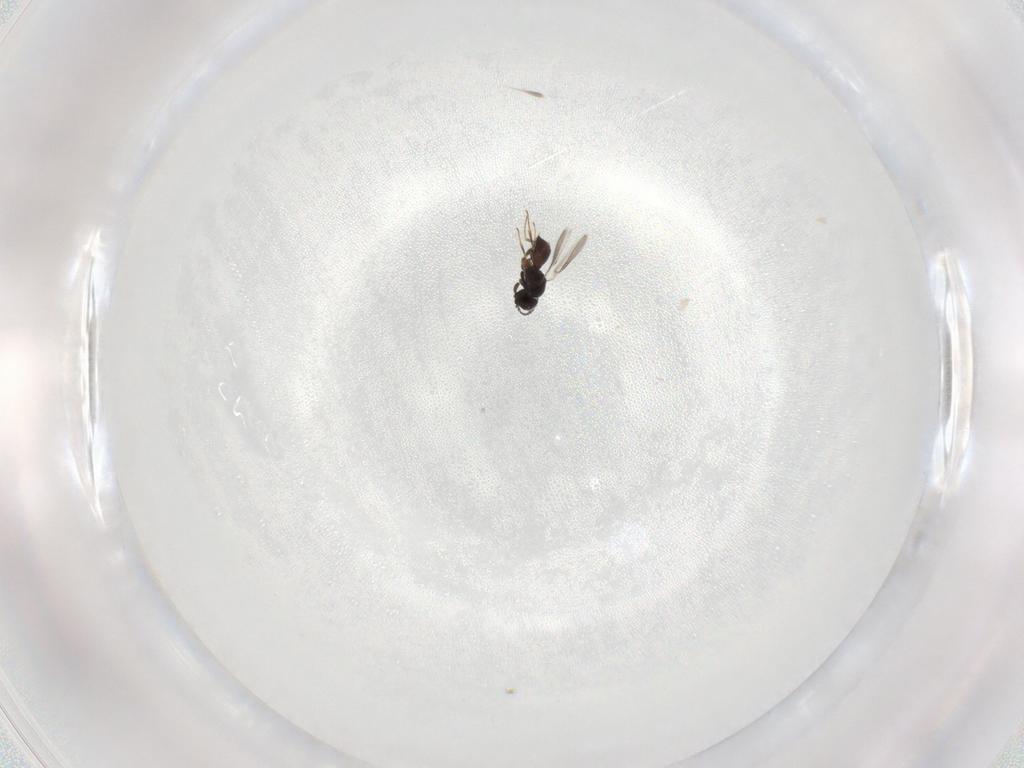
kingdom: Animalia
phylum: Arthropoda
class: Insecta
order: Hymenoptera
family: Scelionidae
